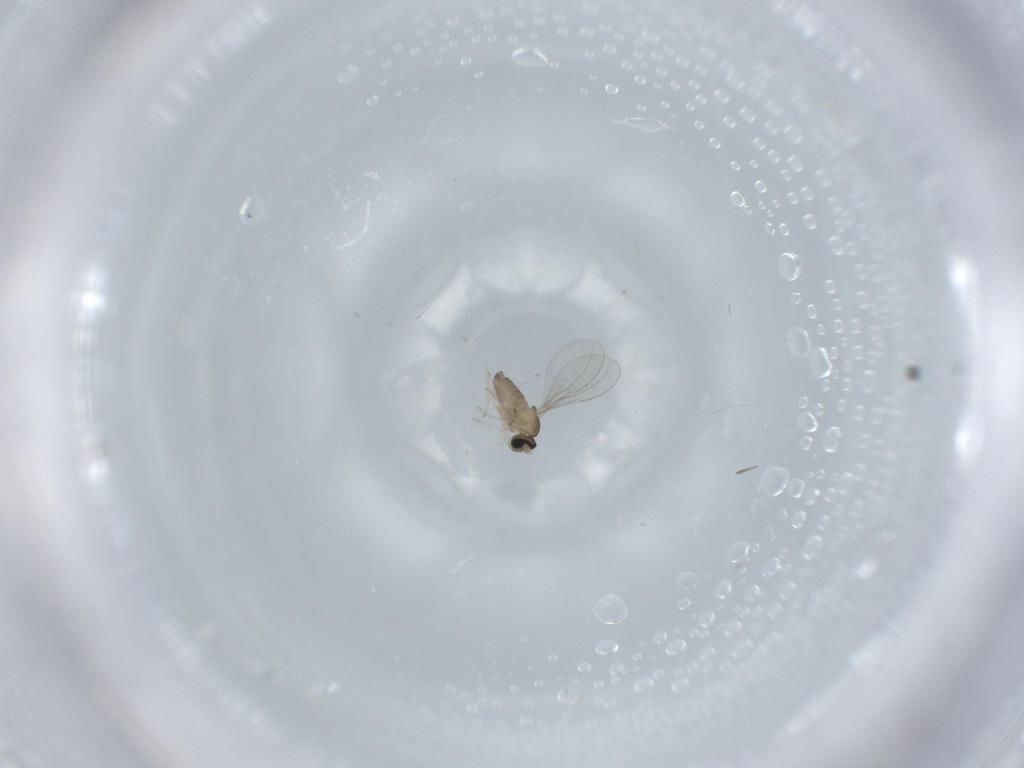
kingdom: Animalia
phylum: Arthropoda
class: Insecta
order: Diptera
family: Cecidomyiidae
